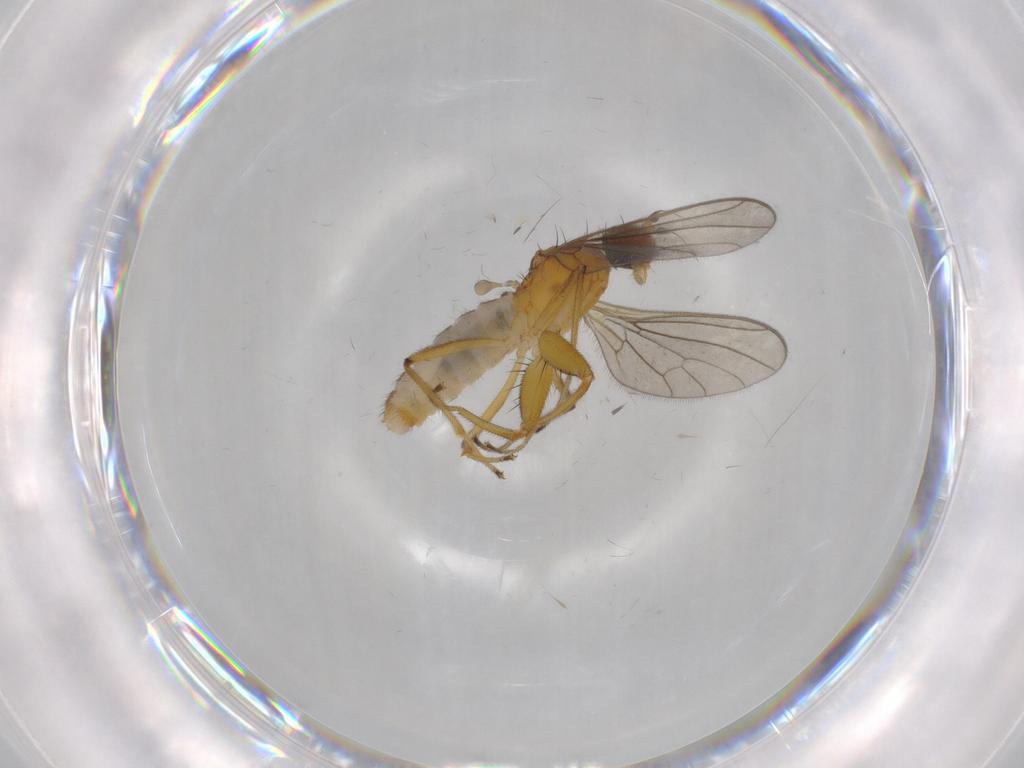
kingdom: Animalia
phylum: Arthropoda
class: Insecta
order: Diptera
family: Empididae
